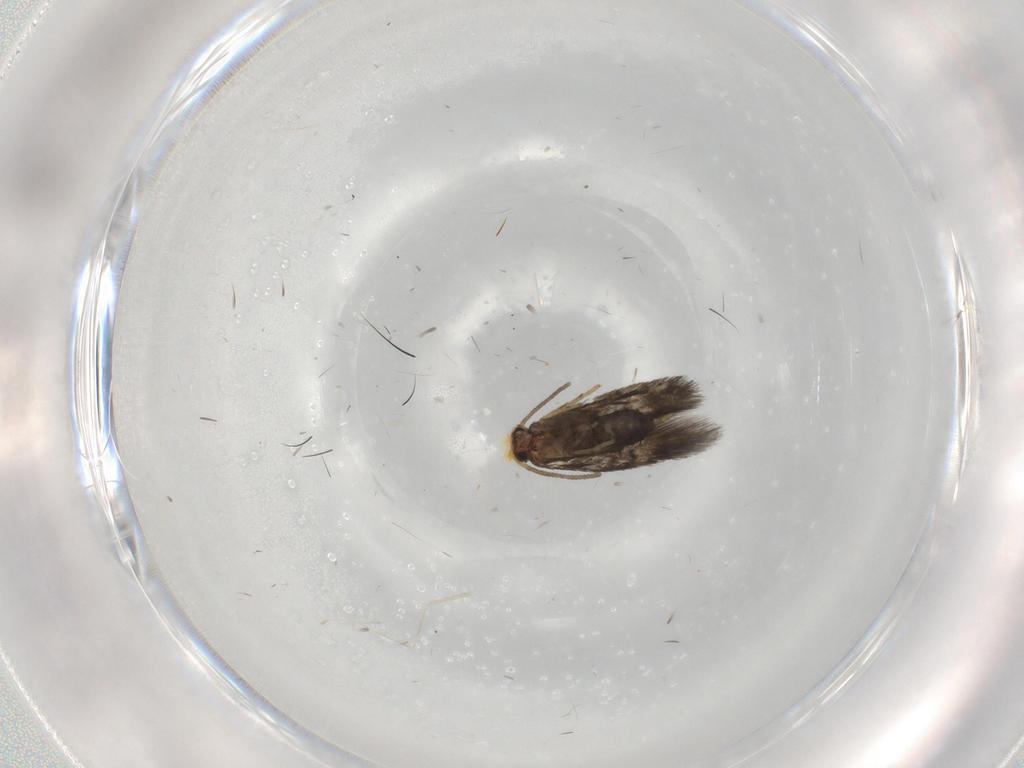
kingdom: Animalia
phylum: Arthropoda
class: Insecta
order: Lepidoptera
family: Nepticulidae
